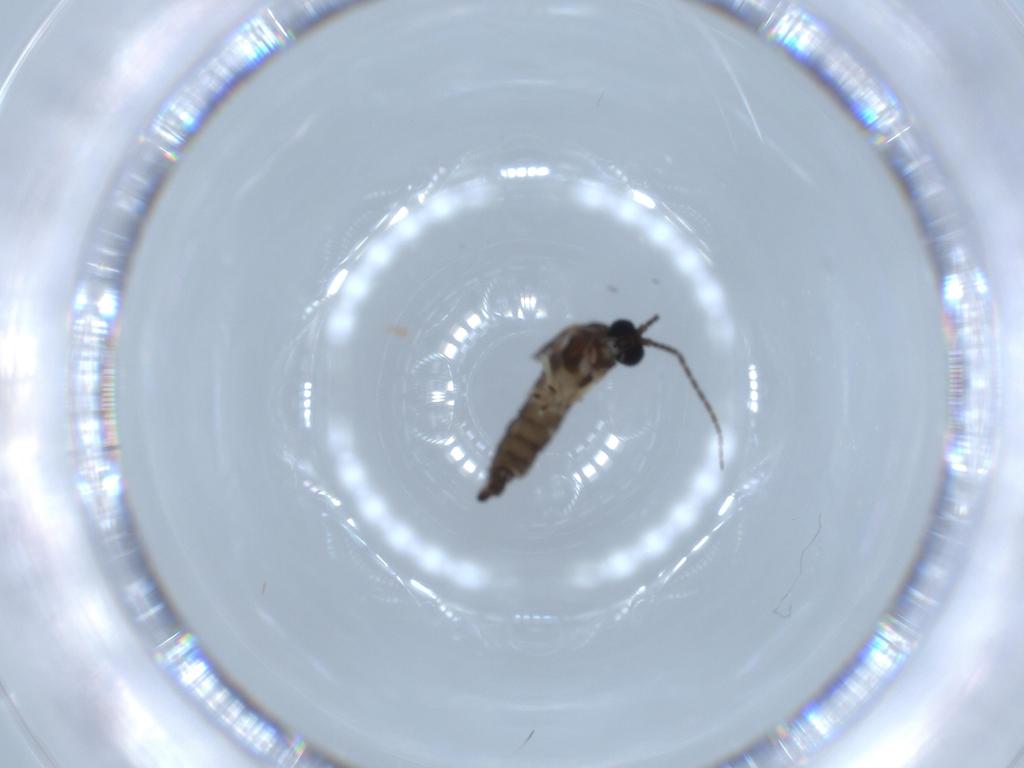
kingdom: Animalia
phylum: Arthropoda
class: Insecta
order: Diptera
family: Sciaridae
